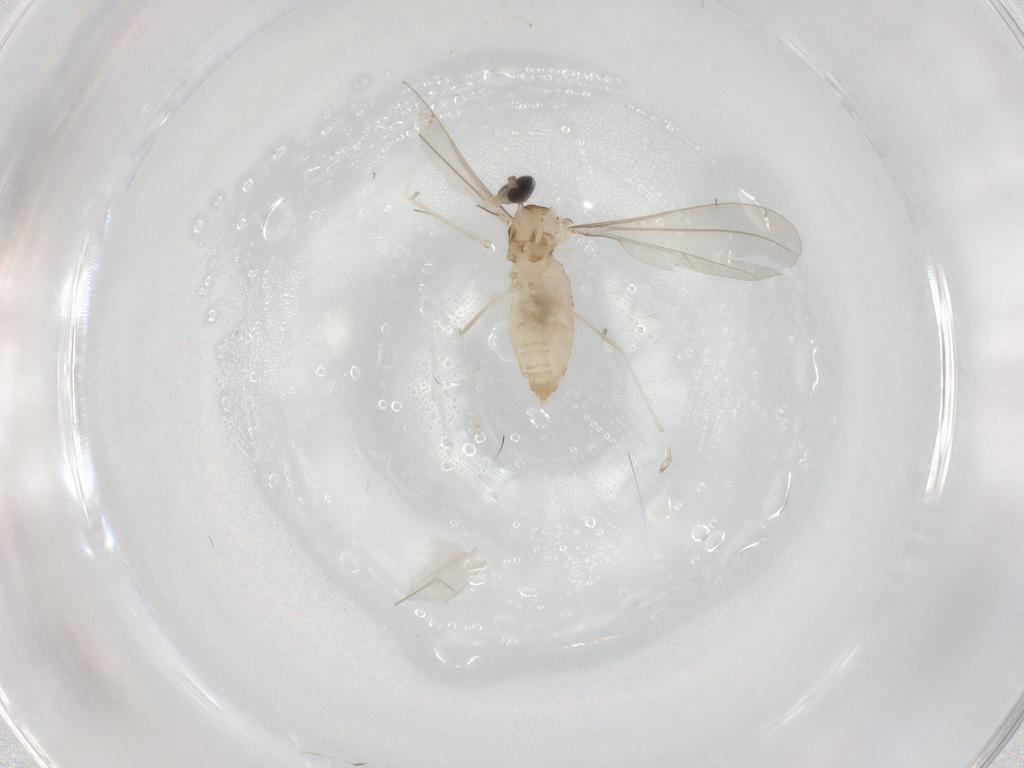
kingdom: Animalia
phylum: Arthropoda
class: Insecta
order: Diptera
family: Cecidomyiidae
